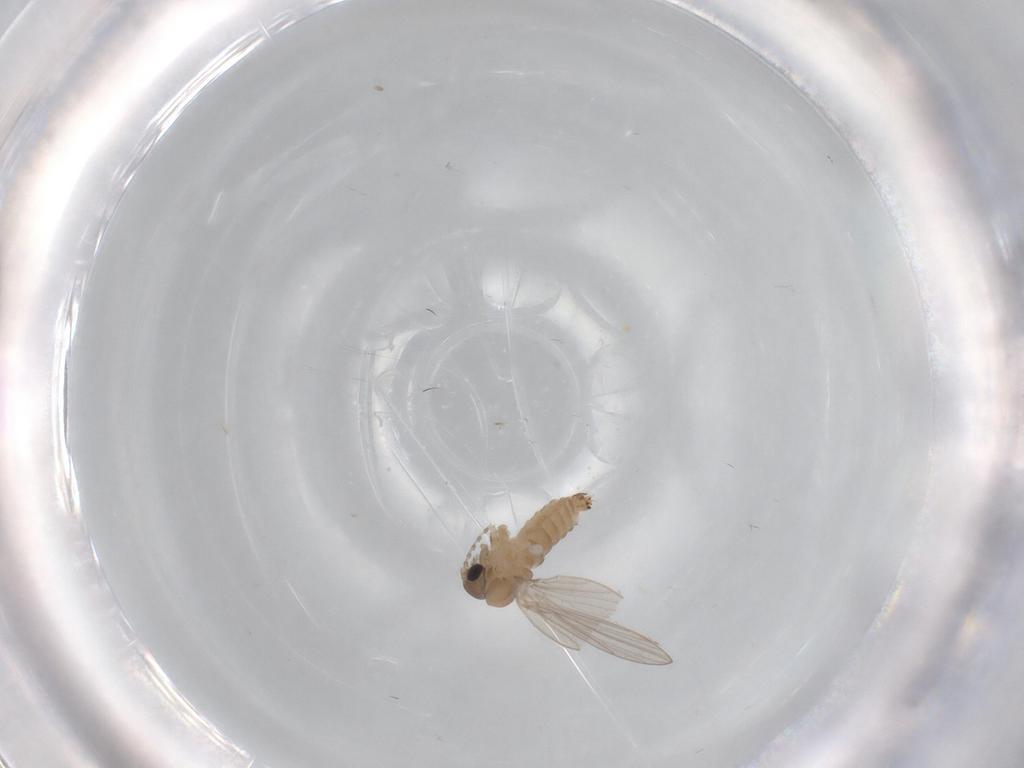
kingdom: Animalia
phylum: Arthropoda
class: Insecta
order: Diptera
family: Psychodidae
